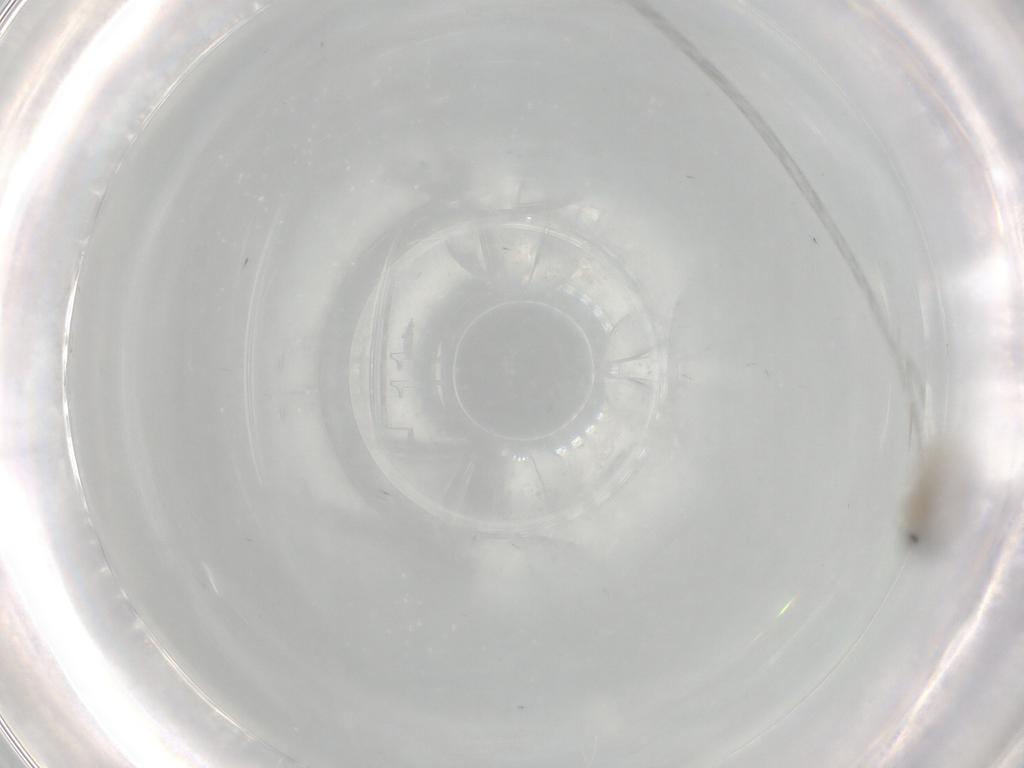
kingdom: Animalia
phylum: Arthropoda
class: Insecta
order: Diptera
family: Cecidomyiidae
